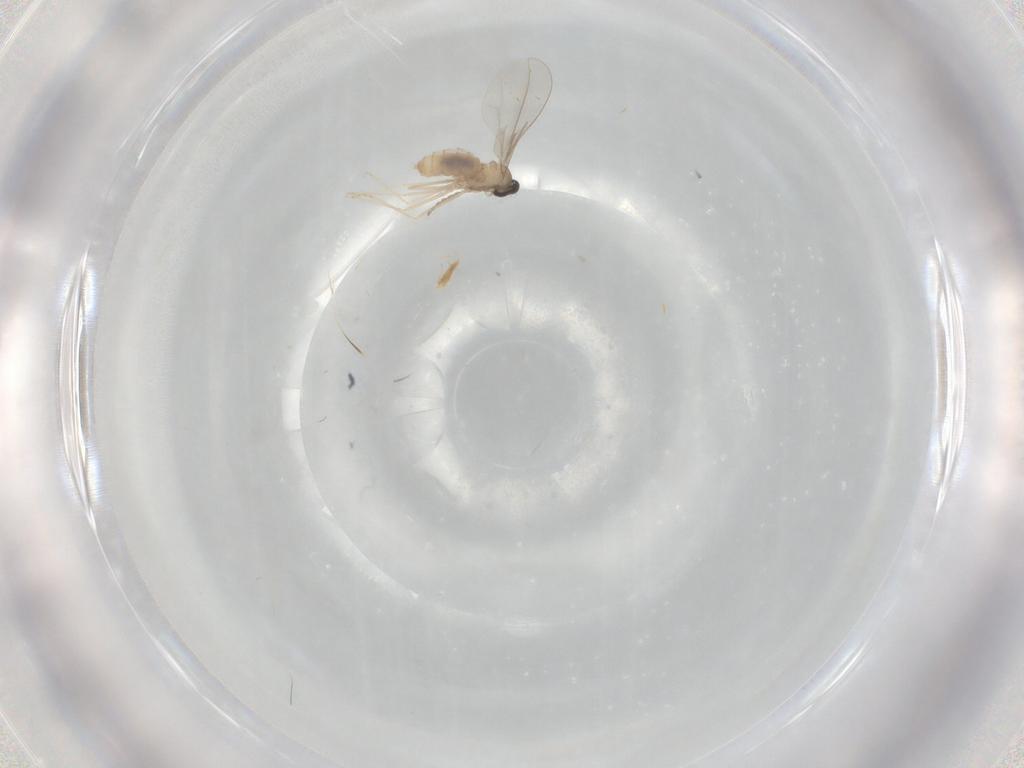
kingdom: Animalia
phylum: Arthropoda
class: Insecta
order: Diptera
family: Cecidomyiidae
